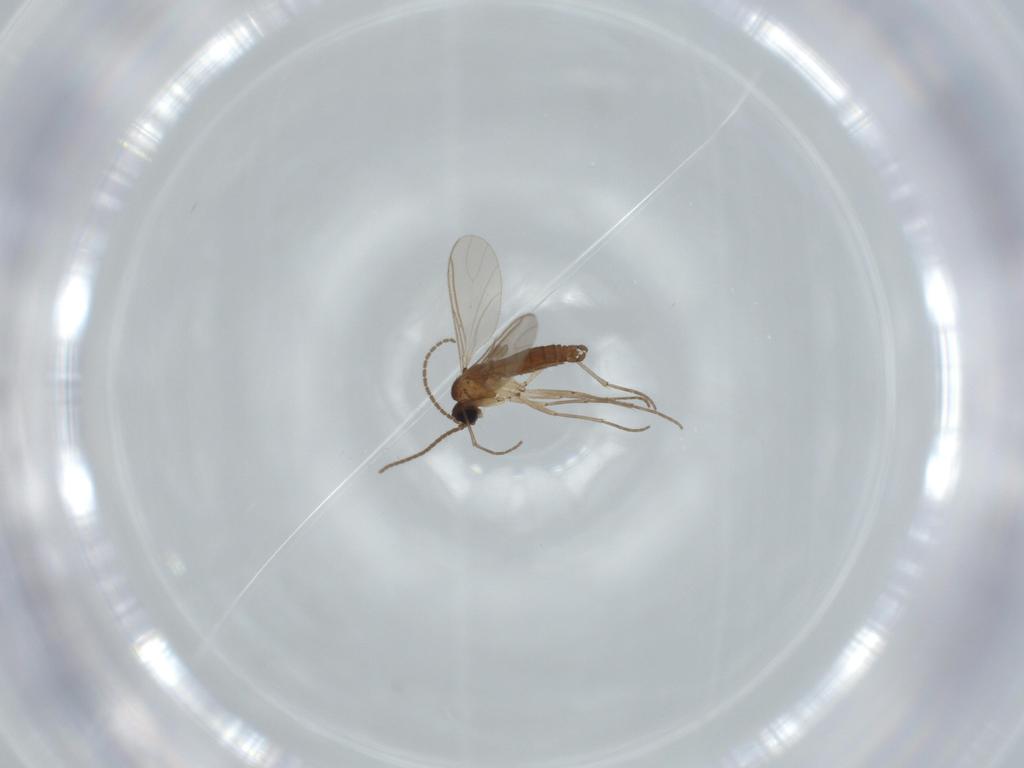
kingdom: Animalia
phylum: Arthropoda
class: Insecta
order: Diptera
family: Sciaridae
